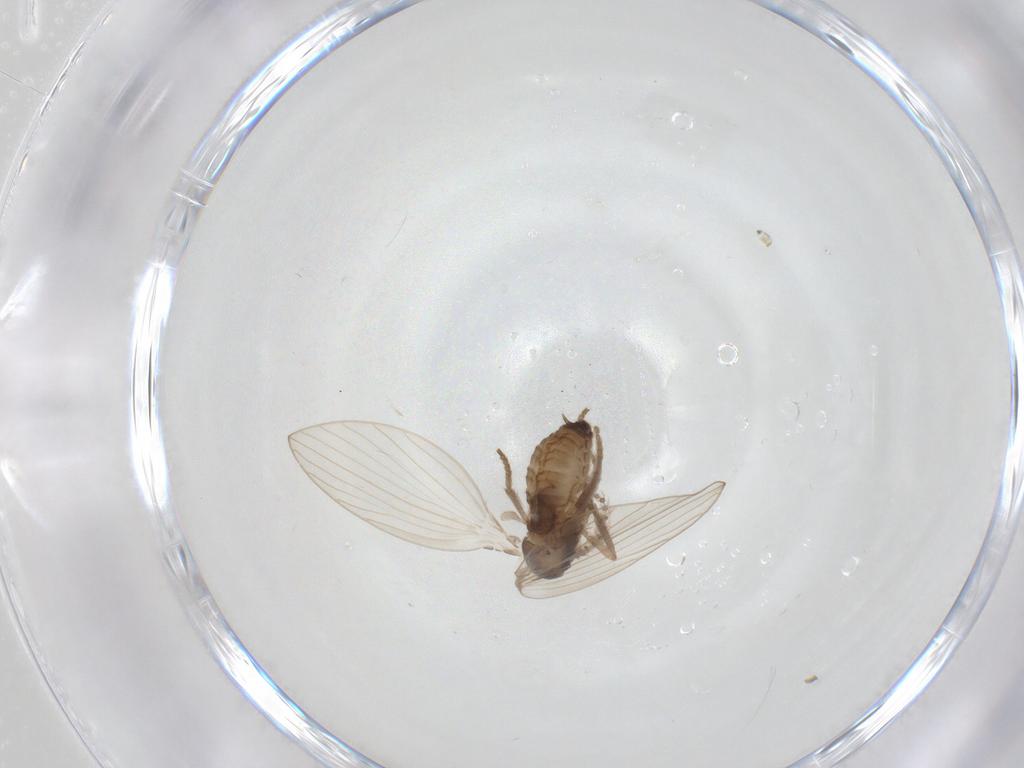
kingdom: Animalia
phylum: Arthropoda
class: Insecta
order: Diptera
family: Psychodidae
